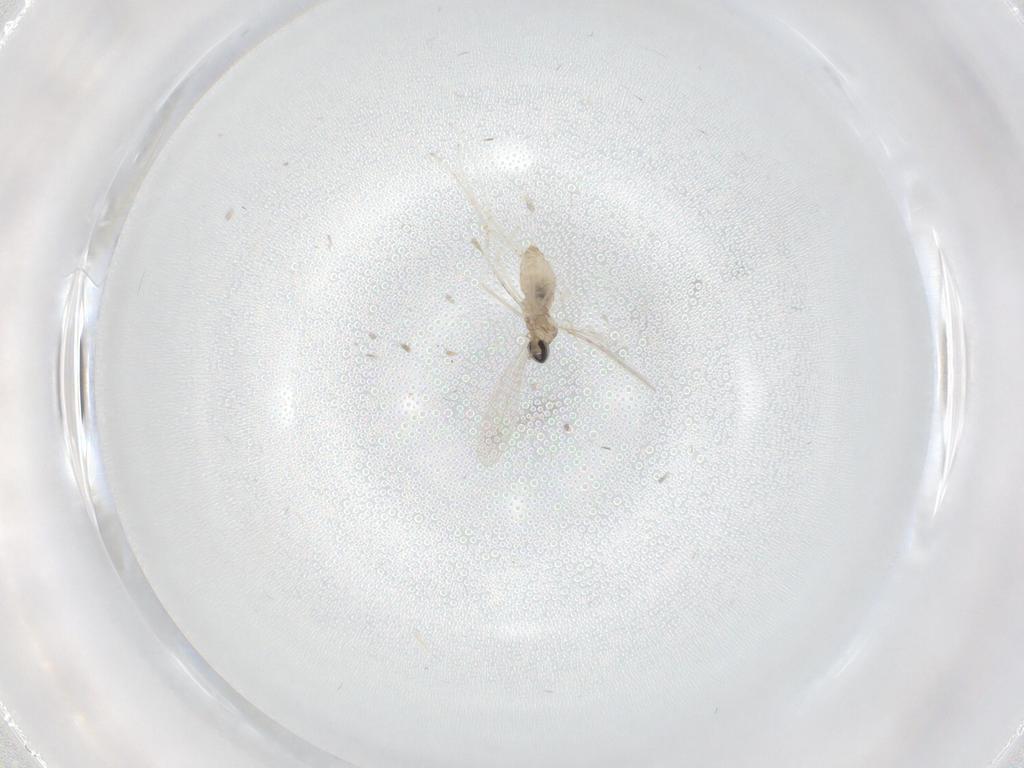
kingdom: Animalia
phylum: Arthropoda
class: Insecta
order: Diptera
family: Cecidomyiidae
